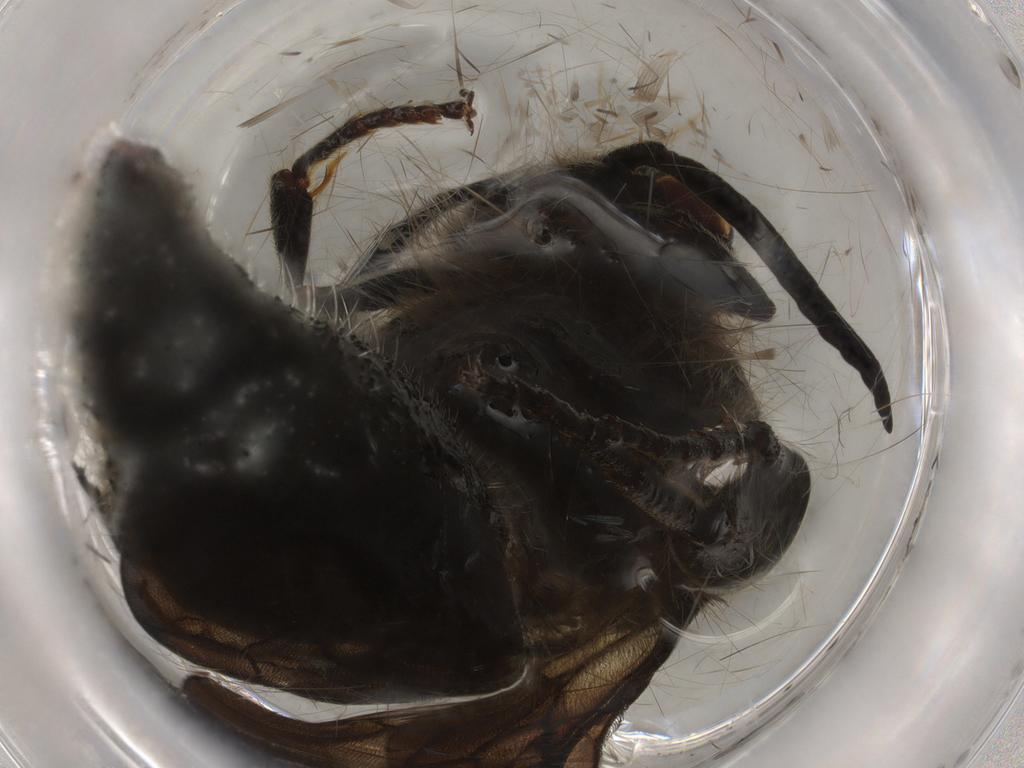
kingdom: Animalia
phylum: Arthropoda
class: Insecta
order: Hymenoptera
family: Mutillidae
